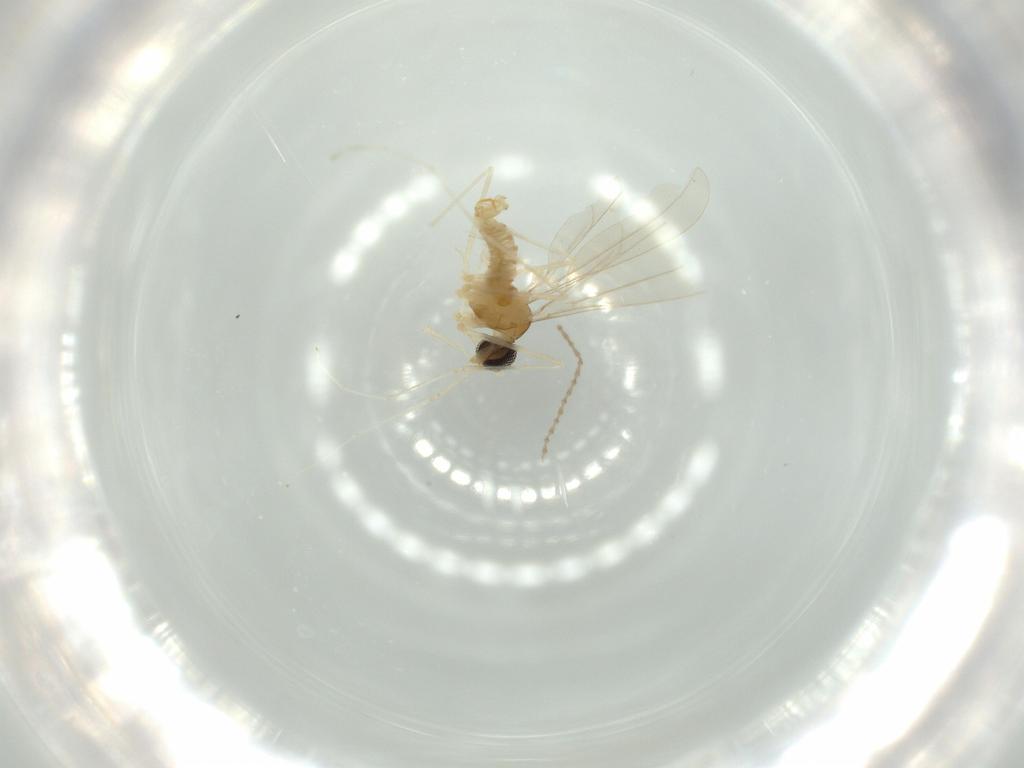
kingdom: Animalia
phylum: Arthropoda
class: Insecta
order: Diptera
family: Cecidomyiidae
